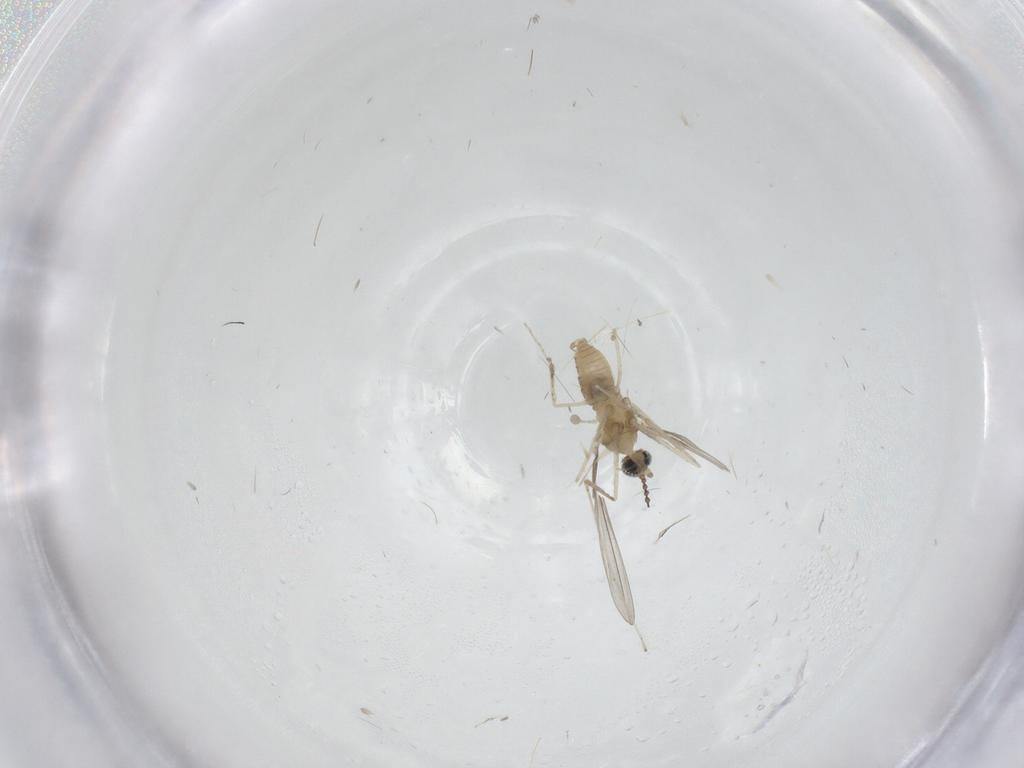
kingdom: Animalia
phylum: Arthropoda
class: Insecta
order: Diptera
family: Cecidomyiidae
